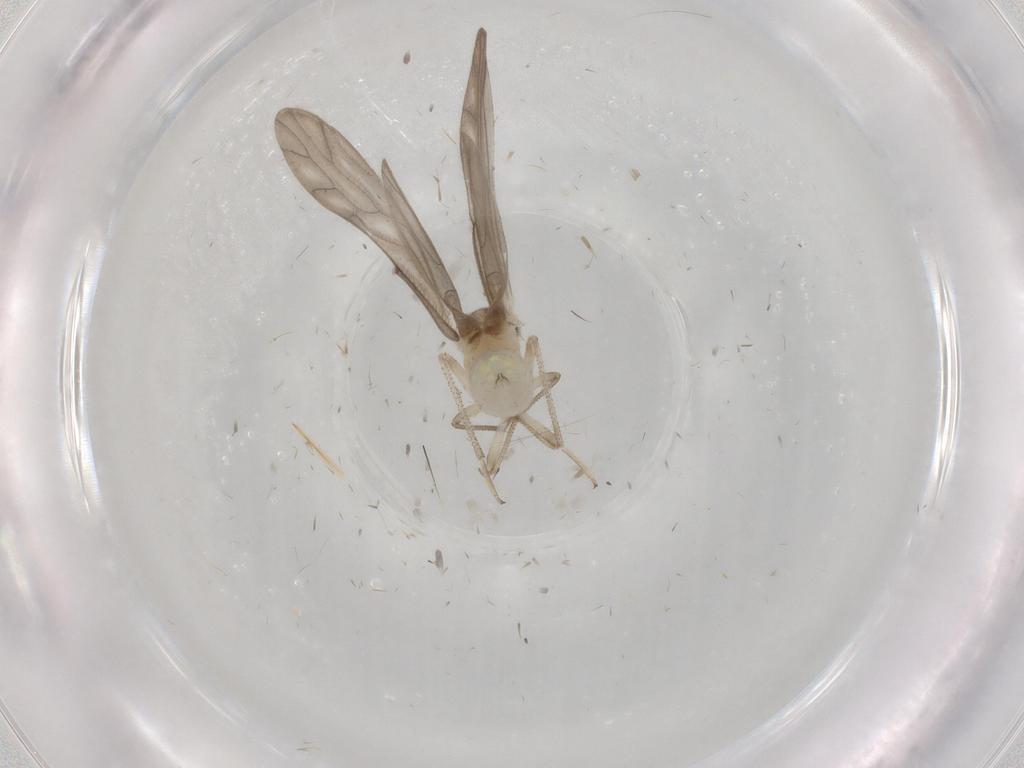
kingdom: Animalia
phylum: Arthropoda
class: Insecta
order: Psocodea
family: Caeciliusidae
